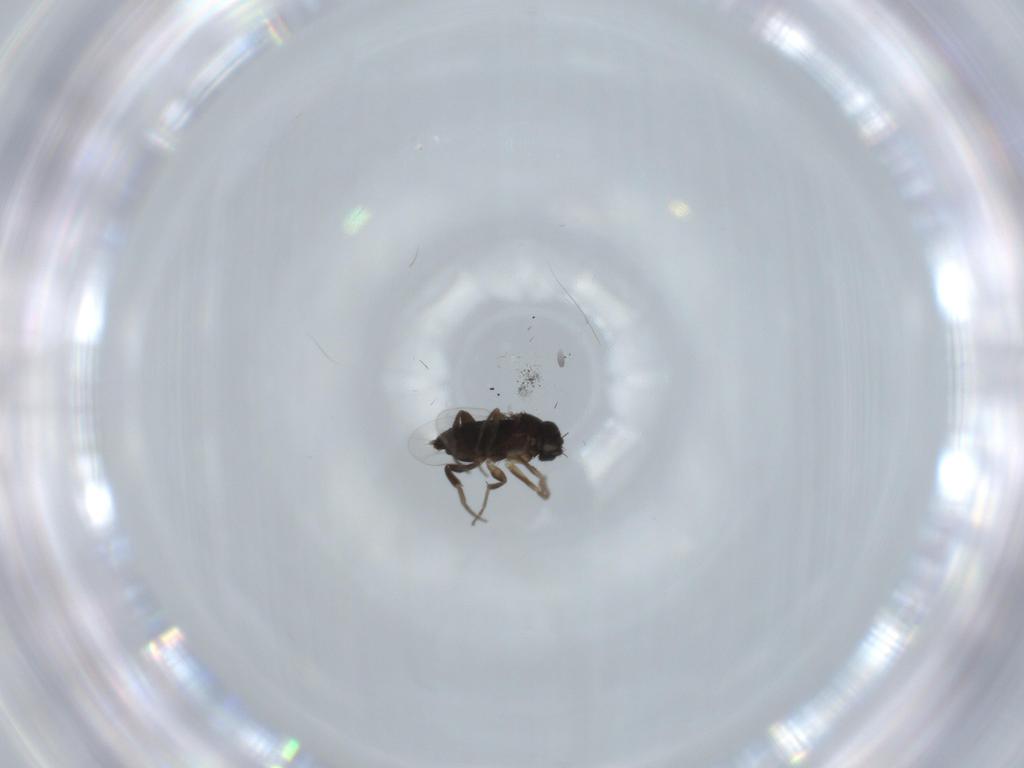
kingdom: Animalia
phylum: Arthropoda
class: Insecta
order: Diptera
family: Phoridae
